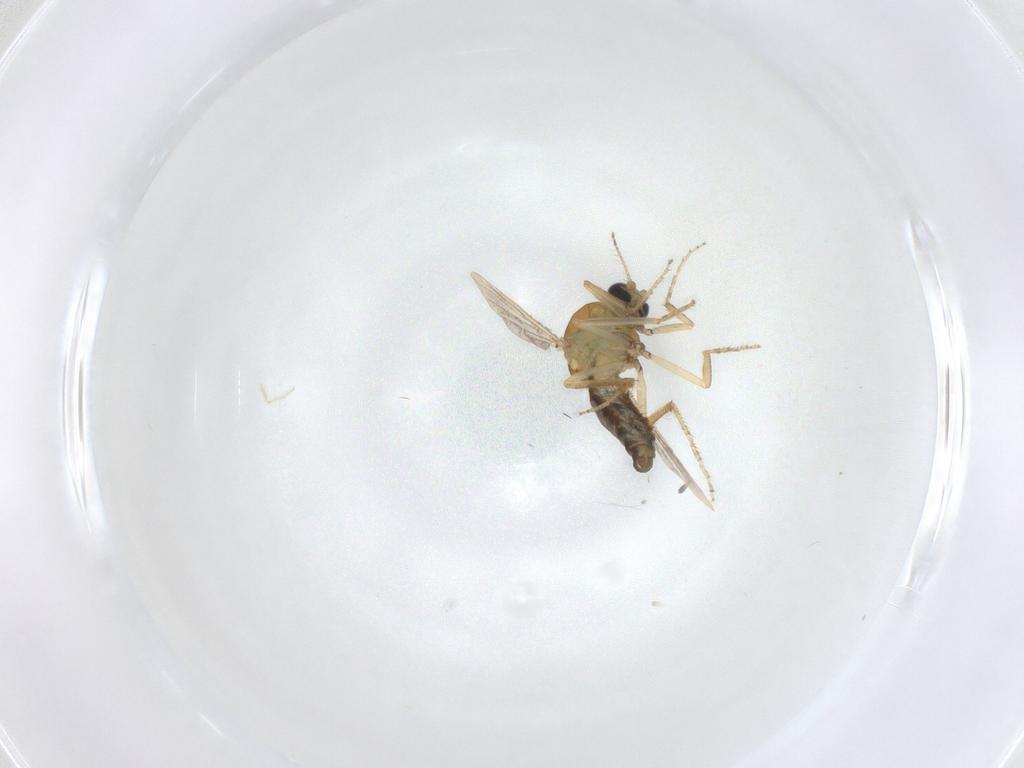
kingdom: Animalia
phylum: Arthropoda
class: Insecta
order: Diptera
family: Ceratopogonidae
